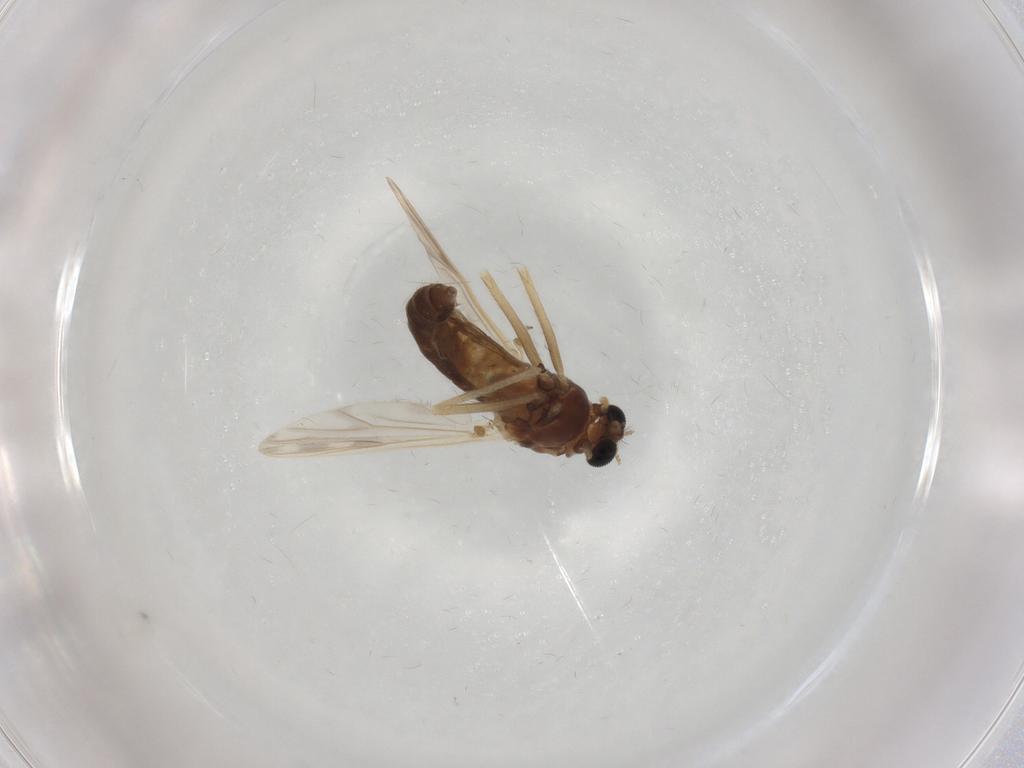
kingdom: Animalia
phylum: Arthropoda
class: Insecta
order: Diptera
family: Chironomidae
